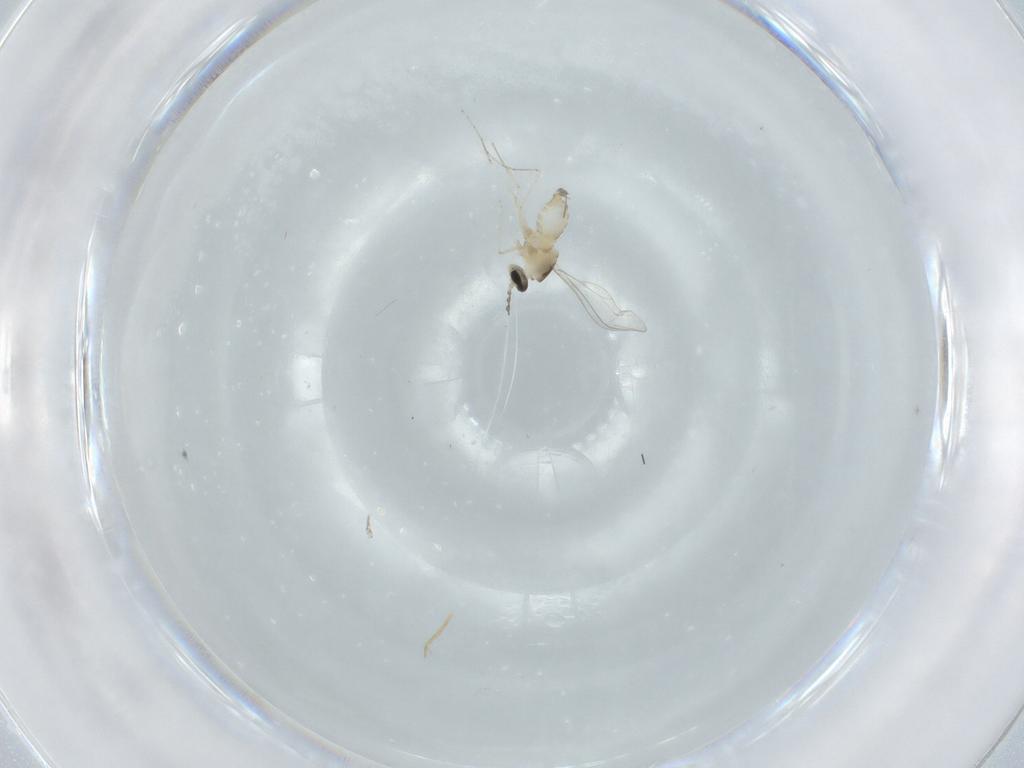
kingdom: Animalia
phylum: Arthropoda
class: Insecta
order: Diptera
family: Cecidomyiidae
